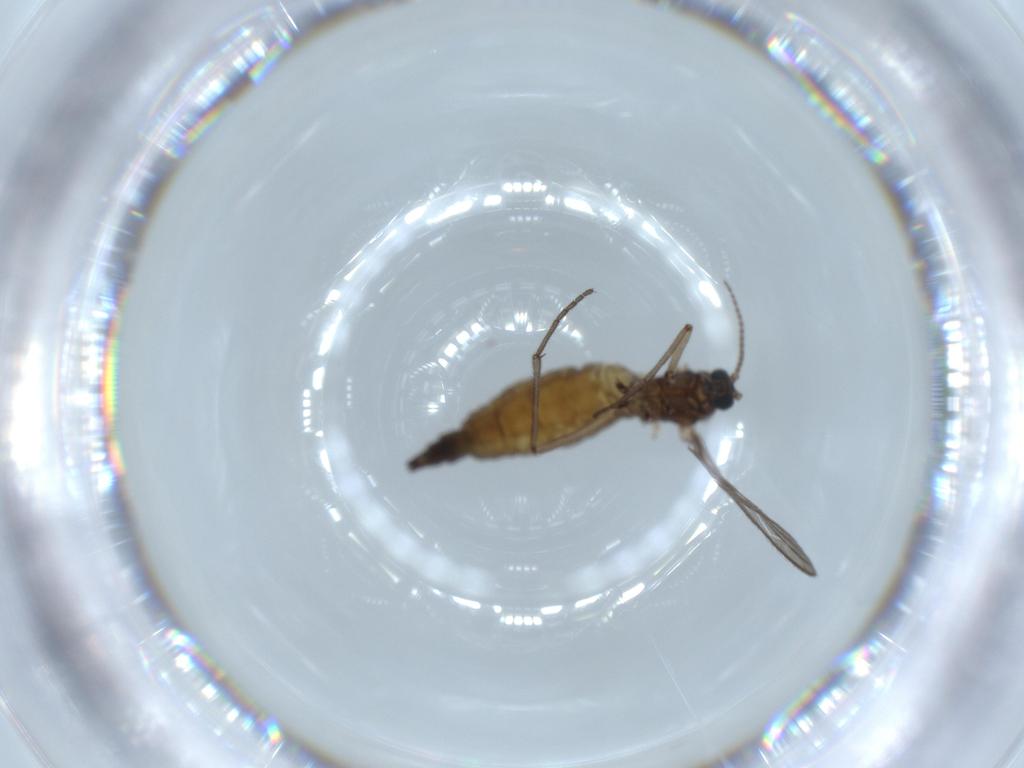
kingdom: Animalia
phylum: Arthropoda
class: Insecta
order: Diptera
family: Sciaridae
